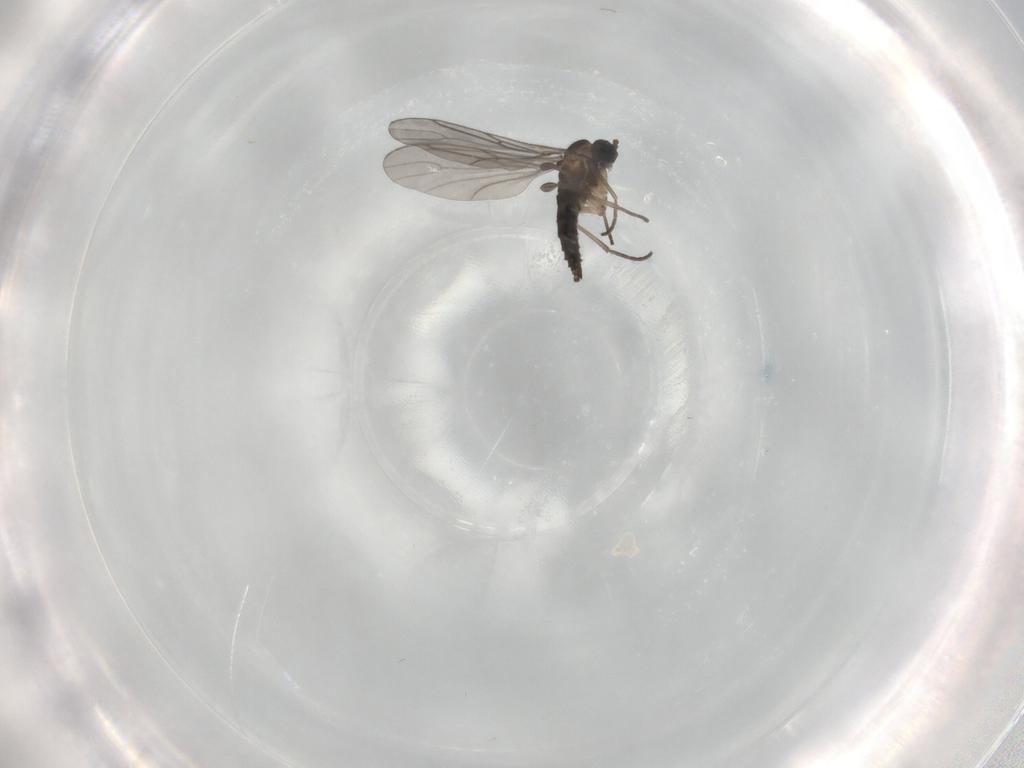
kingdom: Animalia
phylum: Arthropoda
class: Insecta
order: Diptera
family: Sciaridae
